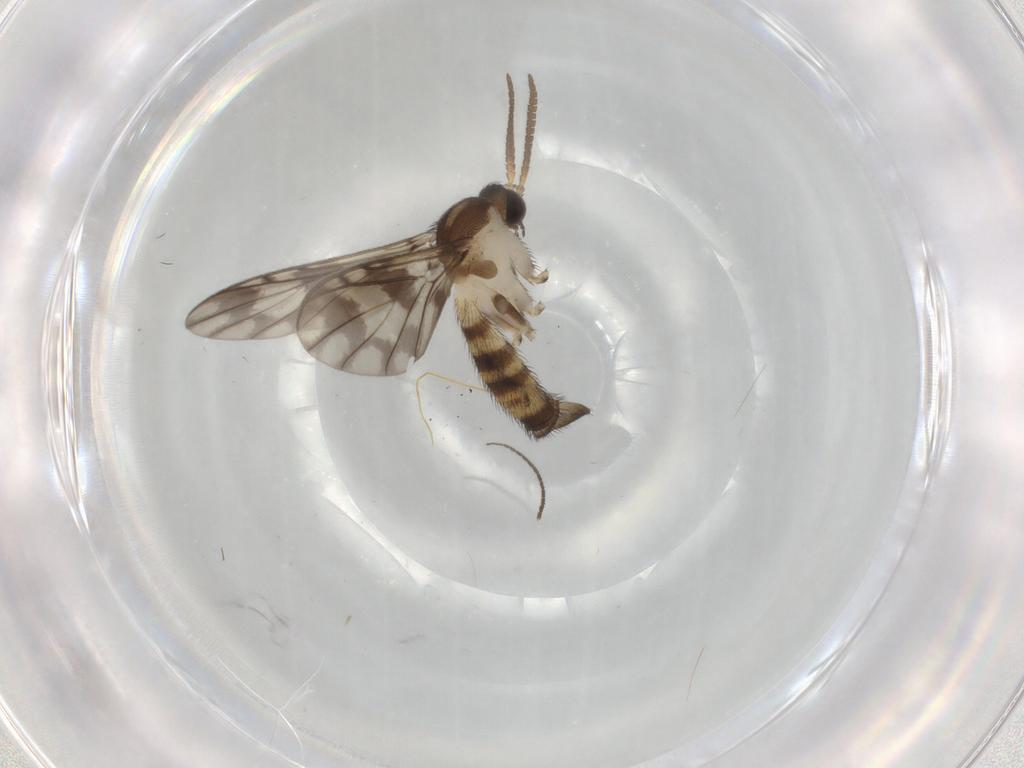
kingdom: Animalia
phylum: Arthropoda
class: Insecta
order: Diptera
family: Keroplatidae
